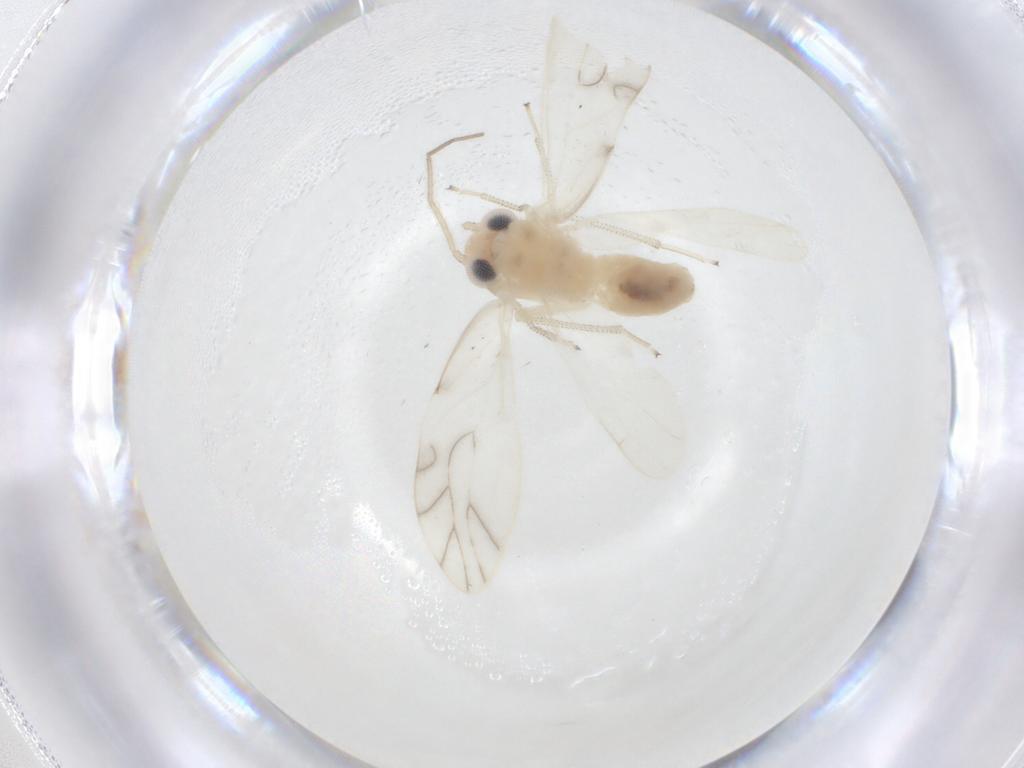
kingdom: Animalia
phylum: Arthropoda
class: Insecta
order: Psocodea
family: Caeciliusidae
